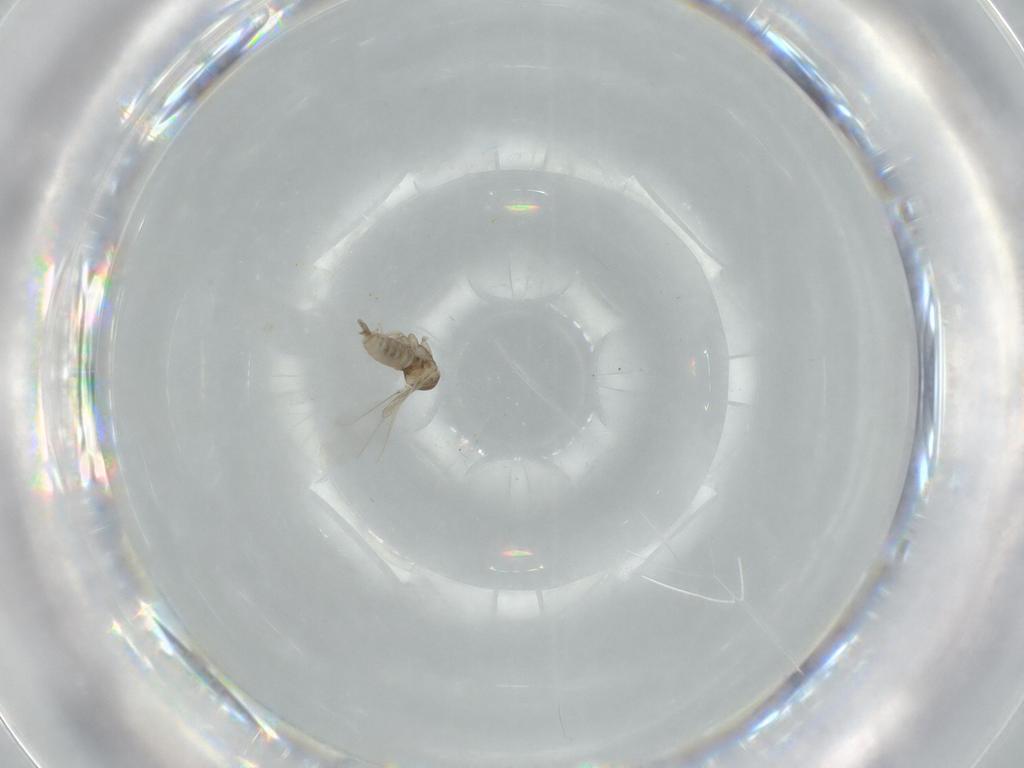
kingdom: Animalia
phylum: Arthropoda
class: Insecta
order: Diptera
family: Cecidomyiidae
